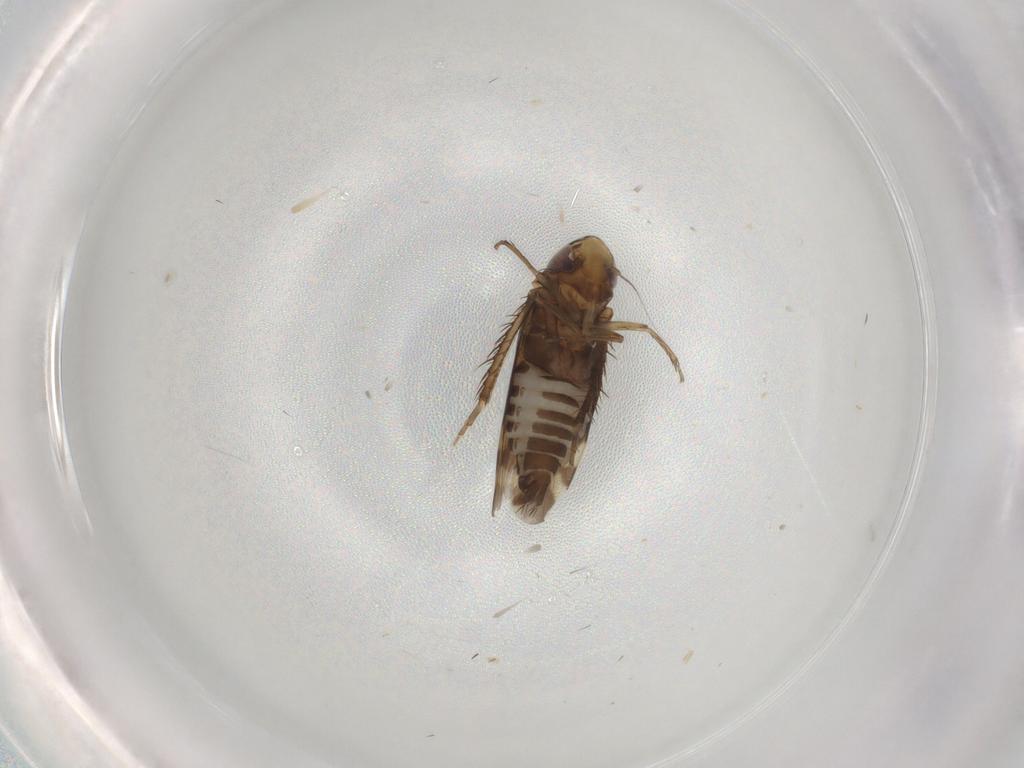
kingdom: Animalia
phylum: Arthropoda
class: Insecta
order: Hemiptera
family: Cicadellidae
